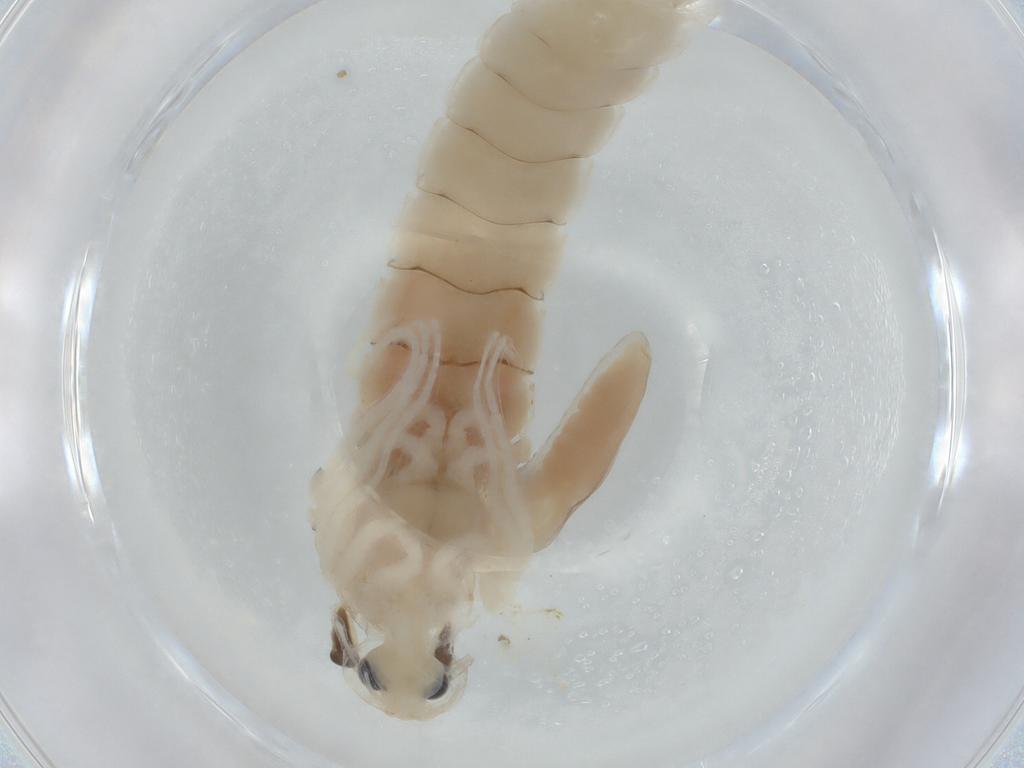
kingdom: Animalia
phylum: Arthropoda
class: Insecta
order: Diptera
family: Chironomidae
